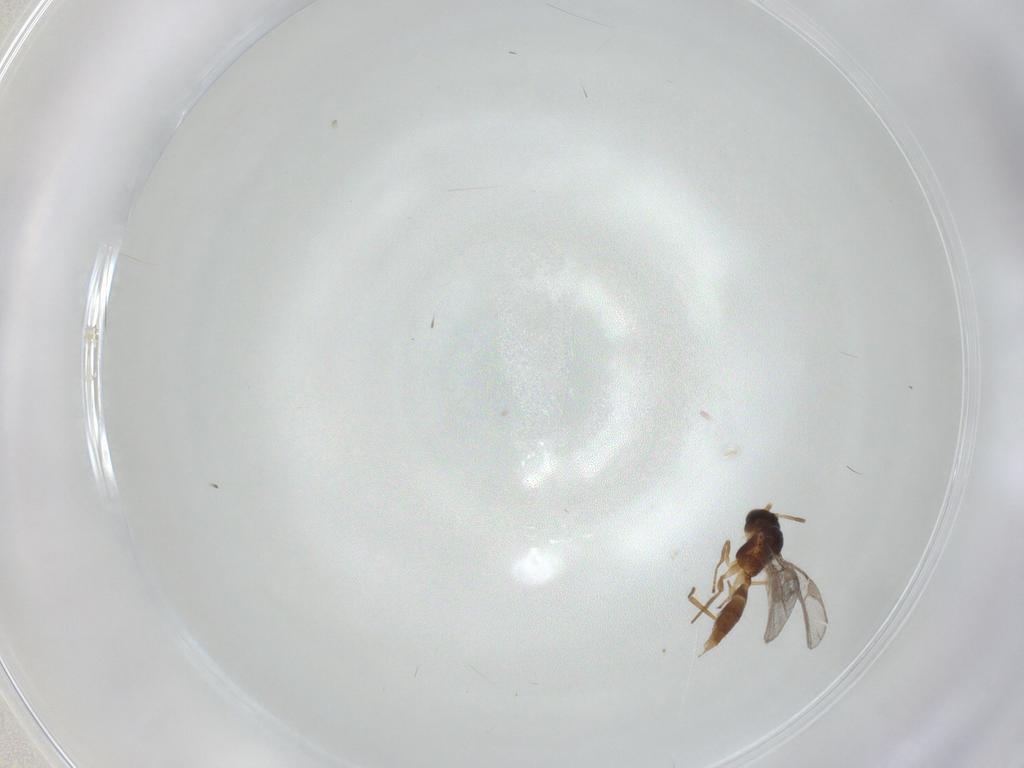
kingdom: Animalia
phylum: Arthropoda
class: Insecta
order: Hymenoptera
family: Braconidae
